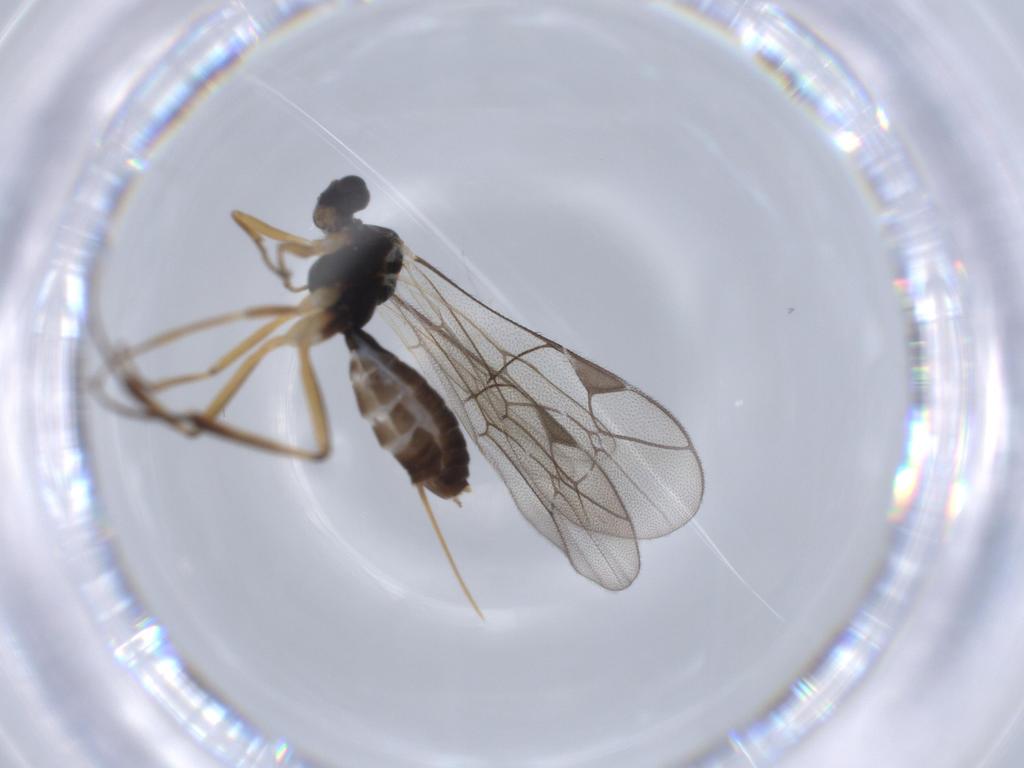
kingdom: Animalia
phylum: Arthropoda
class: Insecta
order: Hymenoptera
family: Ichneumonidae
